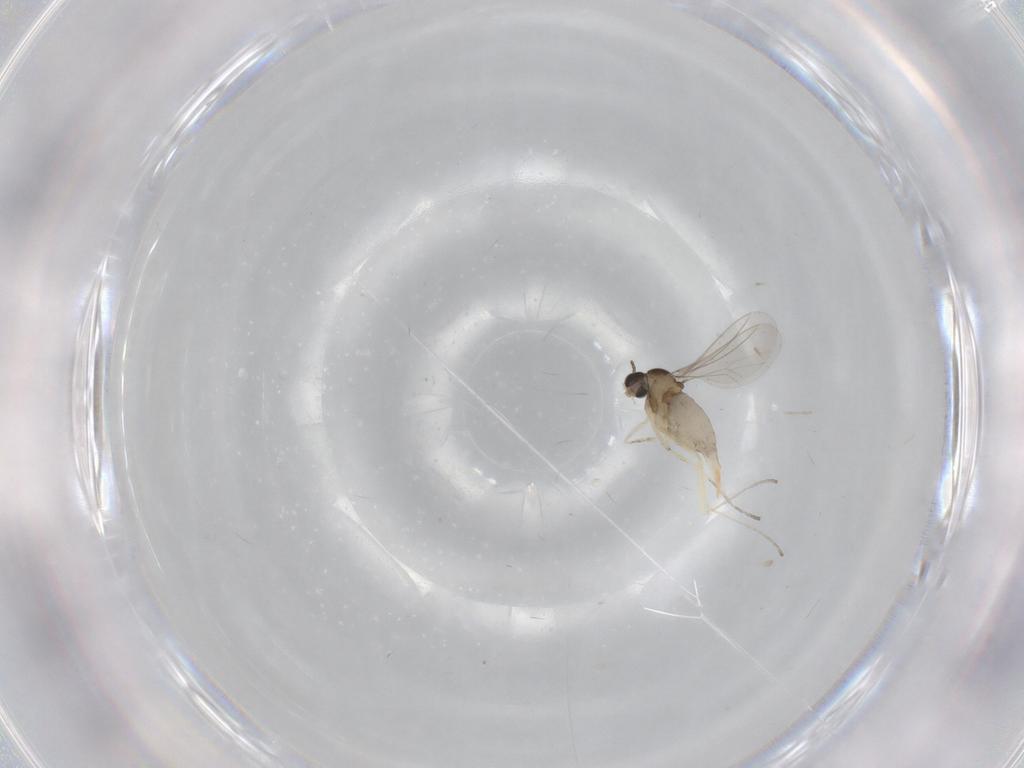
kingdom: Animalia
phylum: Arthropoda
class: Insecta
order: Diptera
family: Cecidomyiidae
